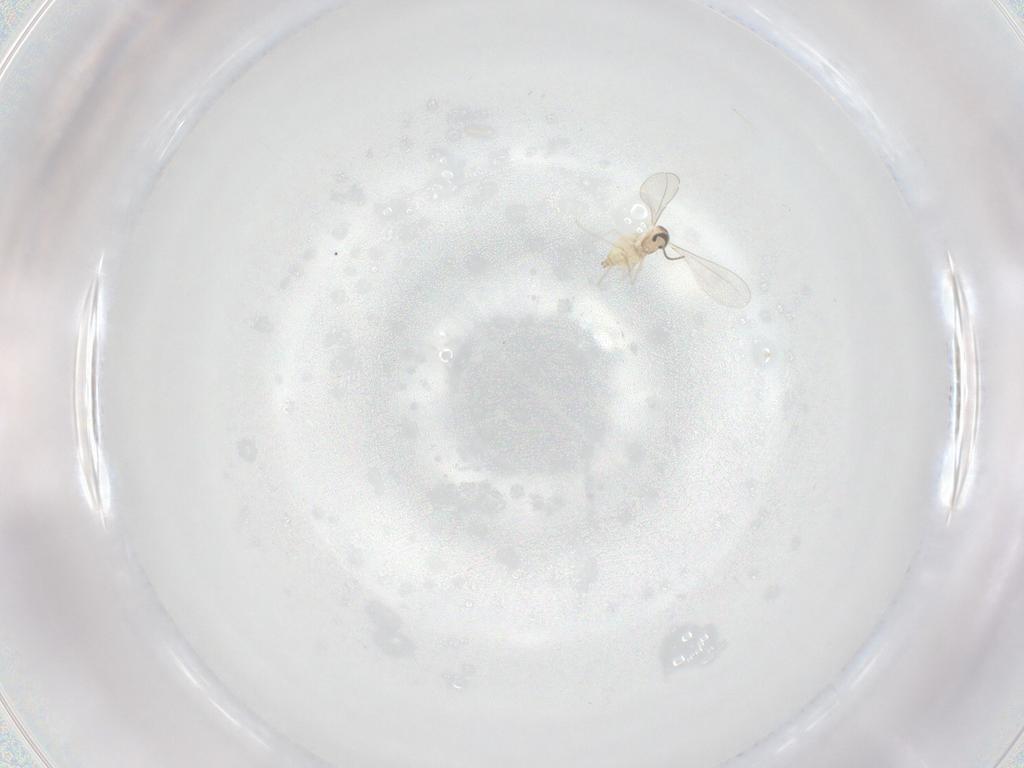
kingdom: Animalia
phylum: Arthropoda
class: Insecta
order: Diptera
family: Cecidomyiidae
